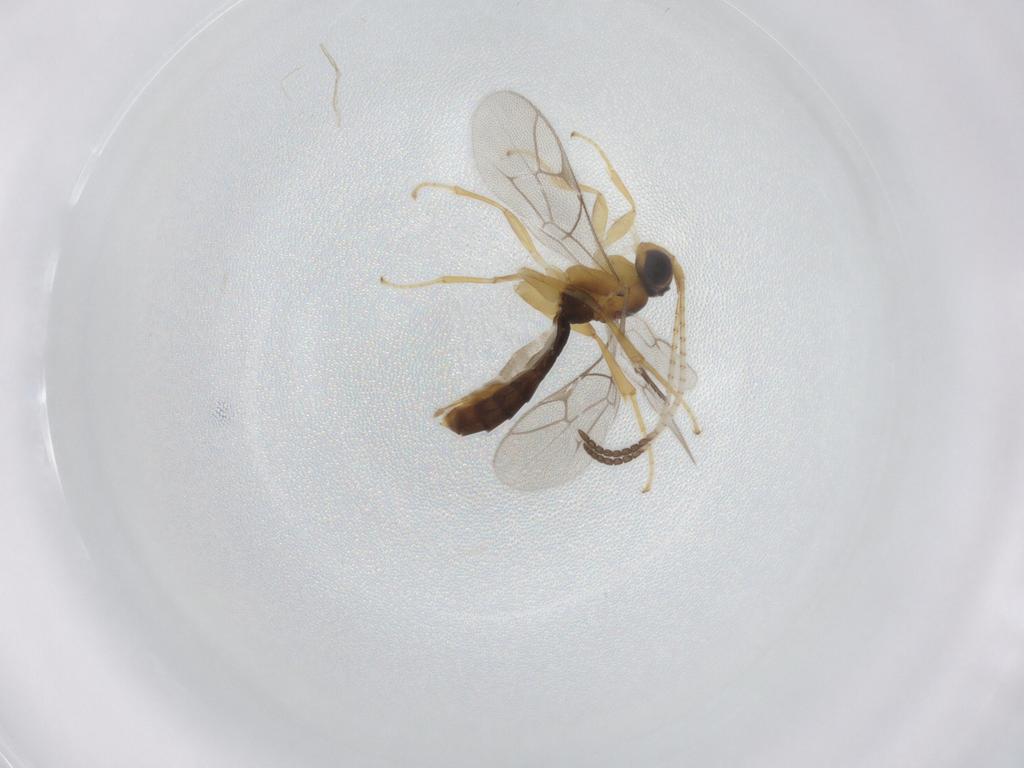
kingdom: Animalia
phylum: Arthropoda
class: Insecta
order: Hymenoptera
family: Ichneumonidae
